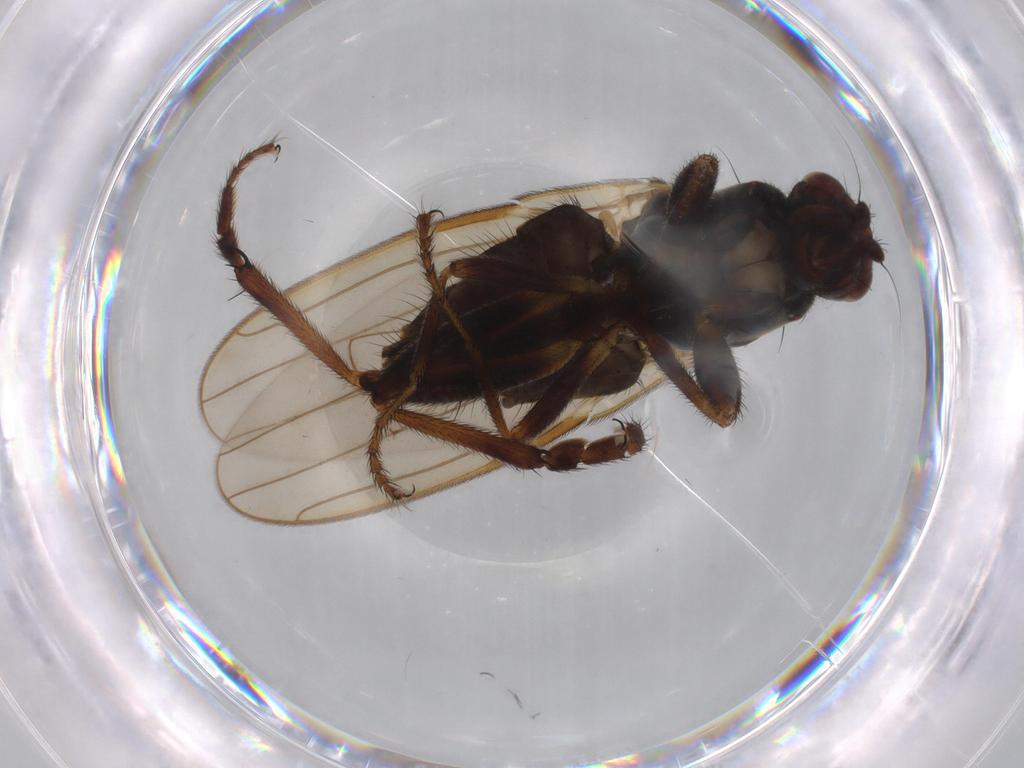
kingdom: Animalia
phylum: Arthropoda
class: Insecta
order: Diptera
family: Sphaeroceridae
